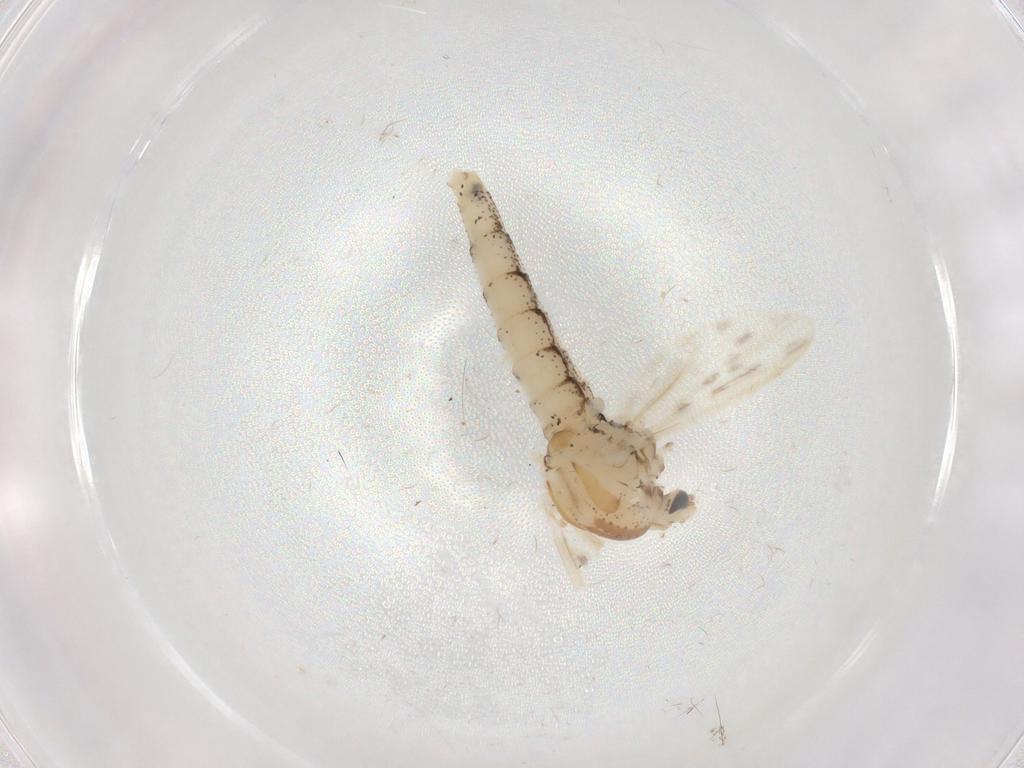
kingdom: Animalia
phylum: Arthropoda
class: Insecta
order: Diptera
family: Chaoboridae
